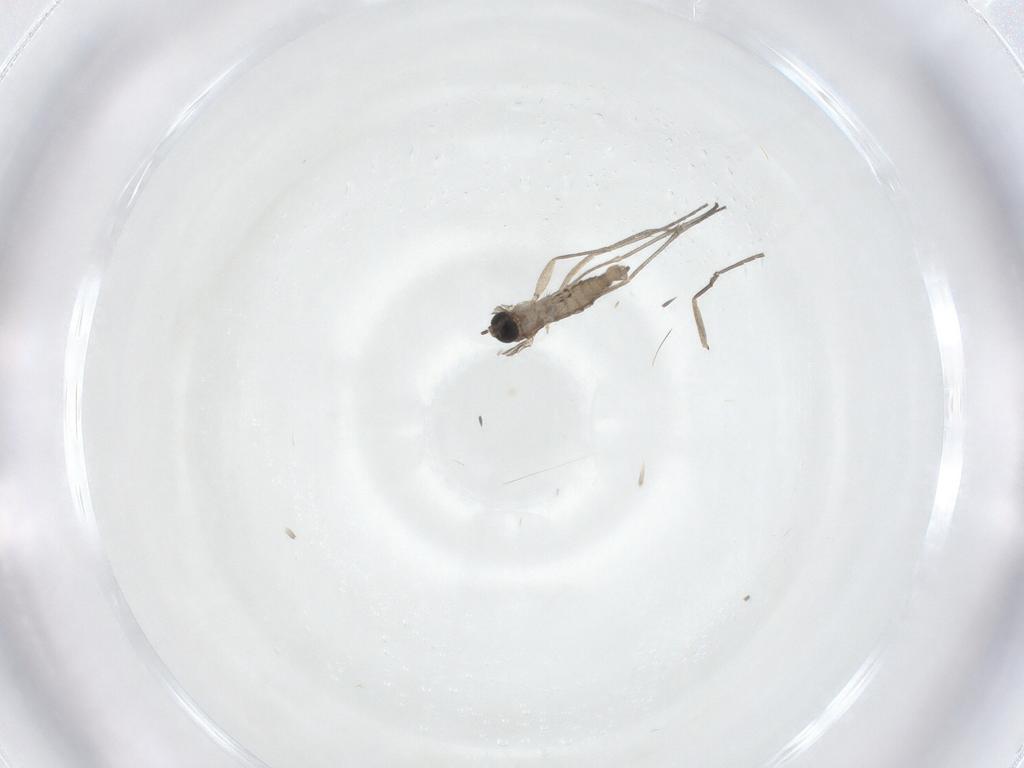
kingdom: Animalia
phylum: Arthropoda
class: Insecta
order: Diptera
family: Sciaridae
